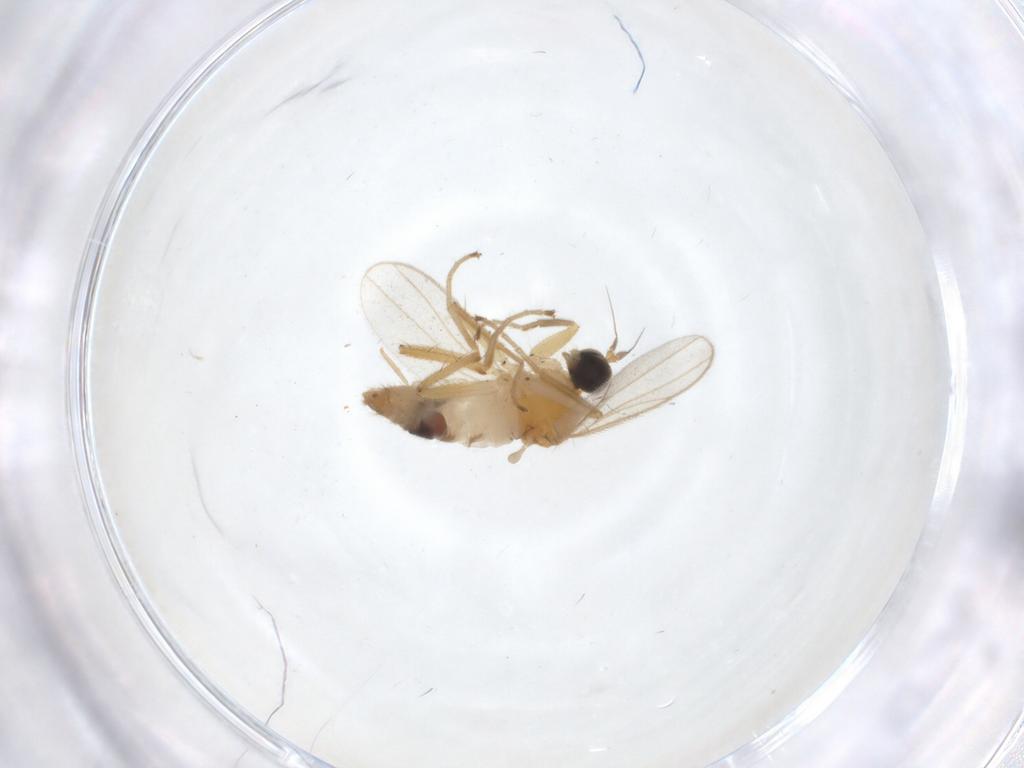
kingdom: Animalia
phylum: Arthropoda
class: Insecta
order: Diptera
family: Hybotidae
